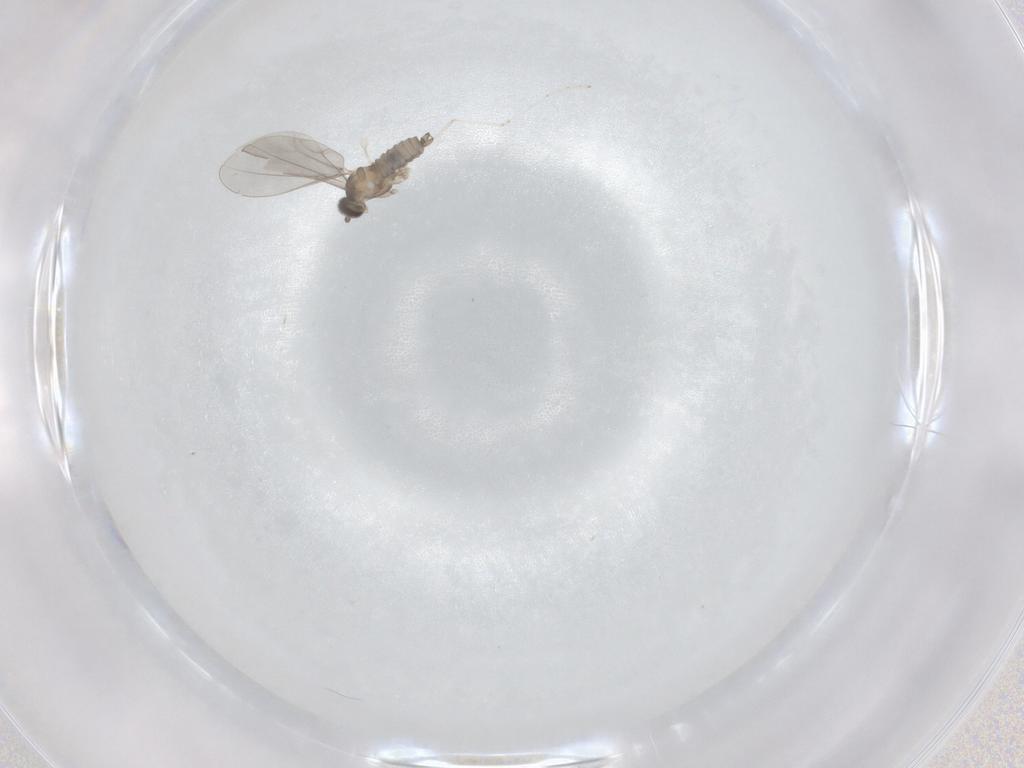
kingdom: Animalia
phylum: Arthropoda
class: Insecta
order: Diptera
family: Cecidomyiidae
